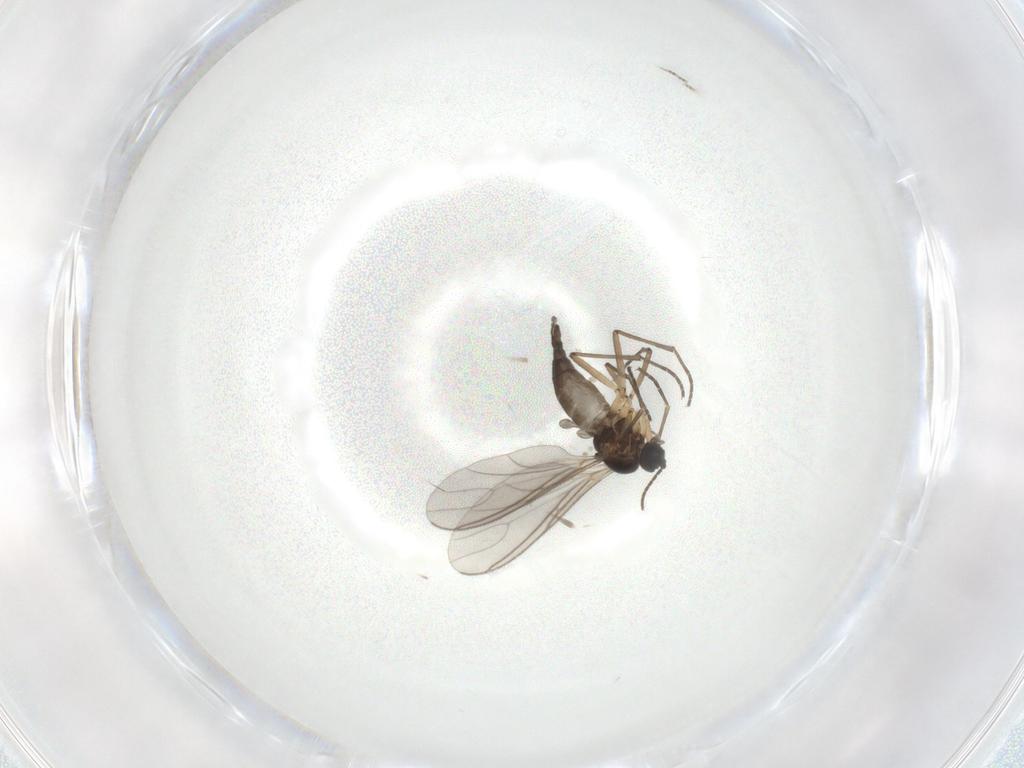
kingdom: Animalia
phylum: Arthropoda
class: Insecta
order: Diptera
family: Sciaridae
